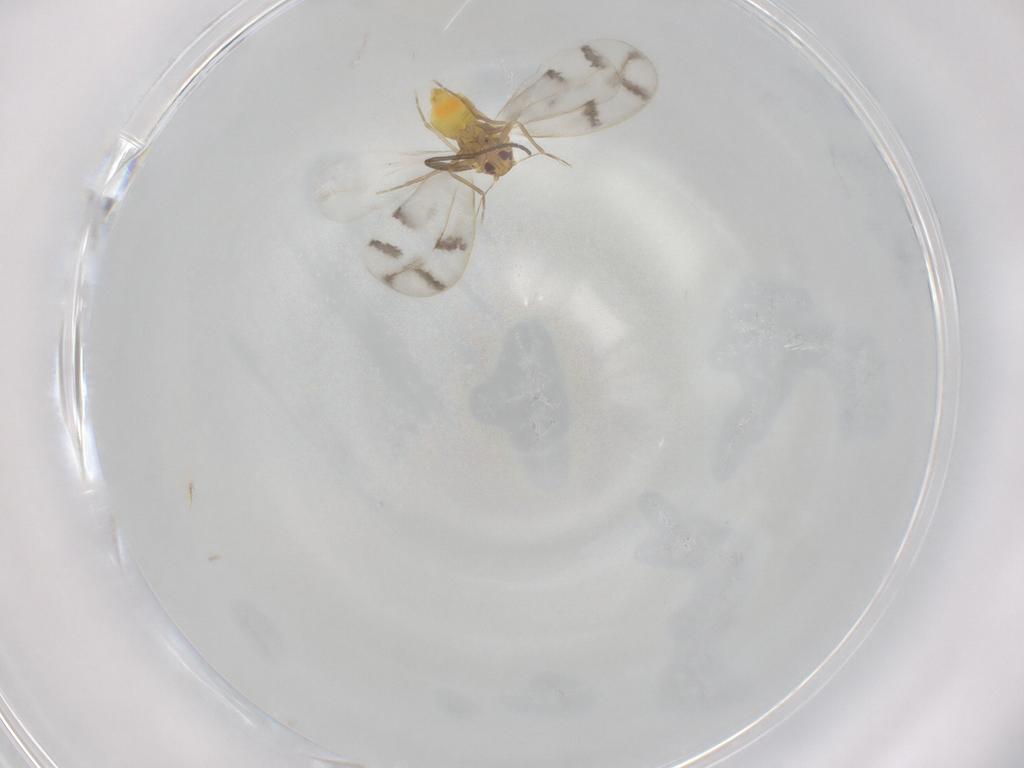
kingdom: Animalia
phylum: Arthropoda
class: Insecta
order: Hemiptera
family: Cicadellidae
